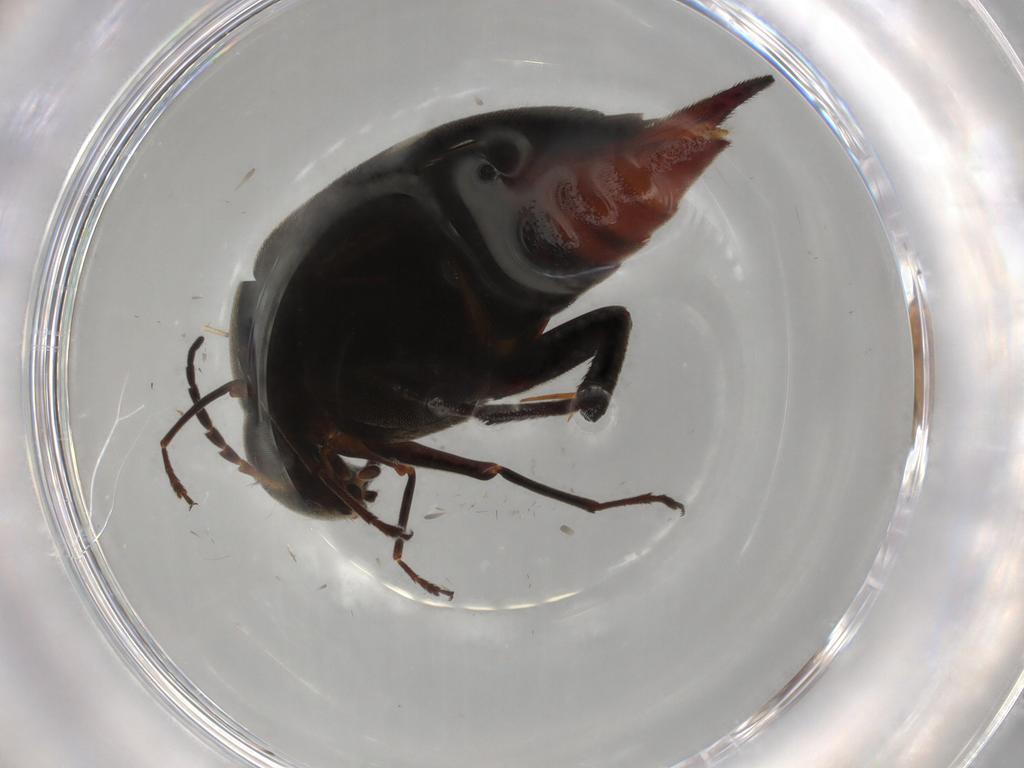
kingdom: Animalia
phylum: Arthropoda
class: Insecta
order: Coleoptera
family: Mordellidae
